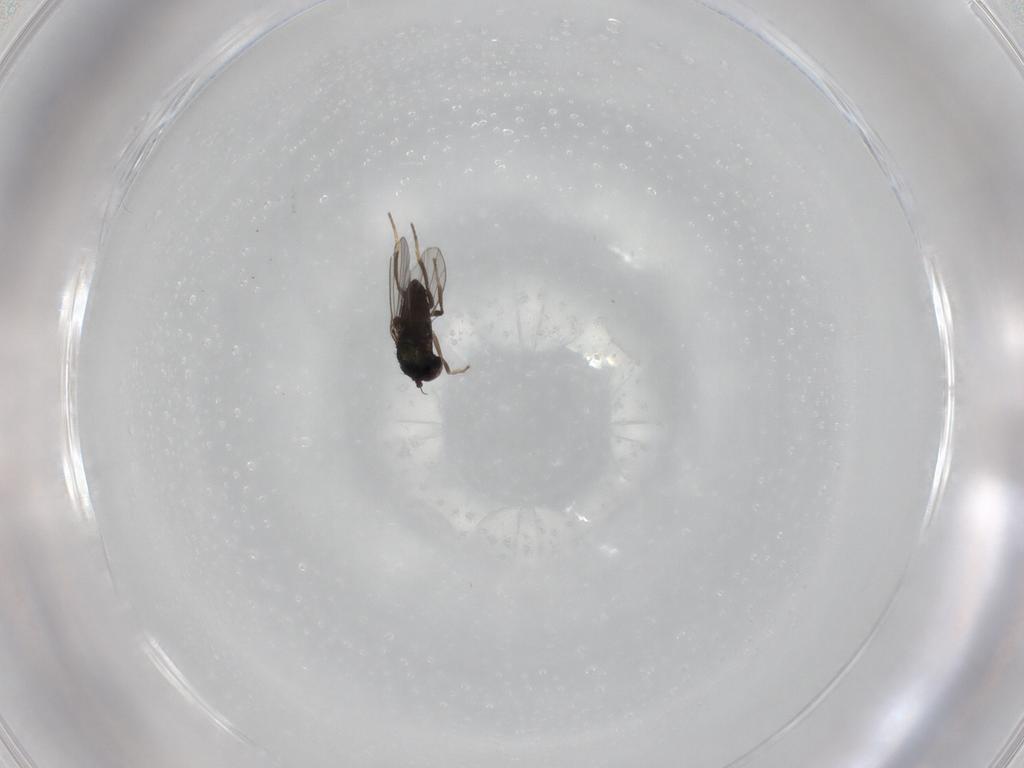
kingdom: Animalia
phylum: Arthropoda
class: Insecta
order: Diptera
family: Dolichopodidae
